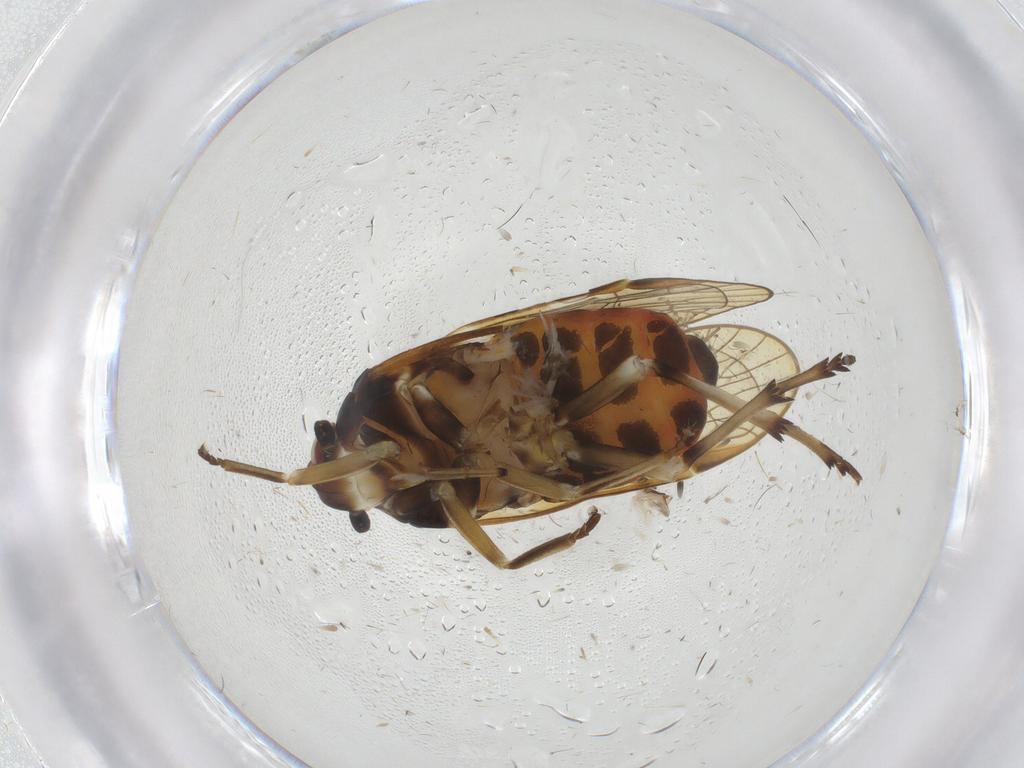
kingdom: Animalia
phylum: Arthropoda
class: Insecta
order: Hemiptera
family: Kinnaridae
